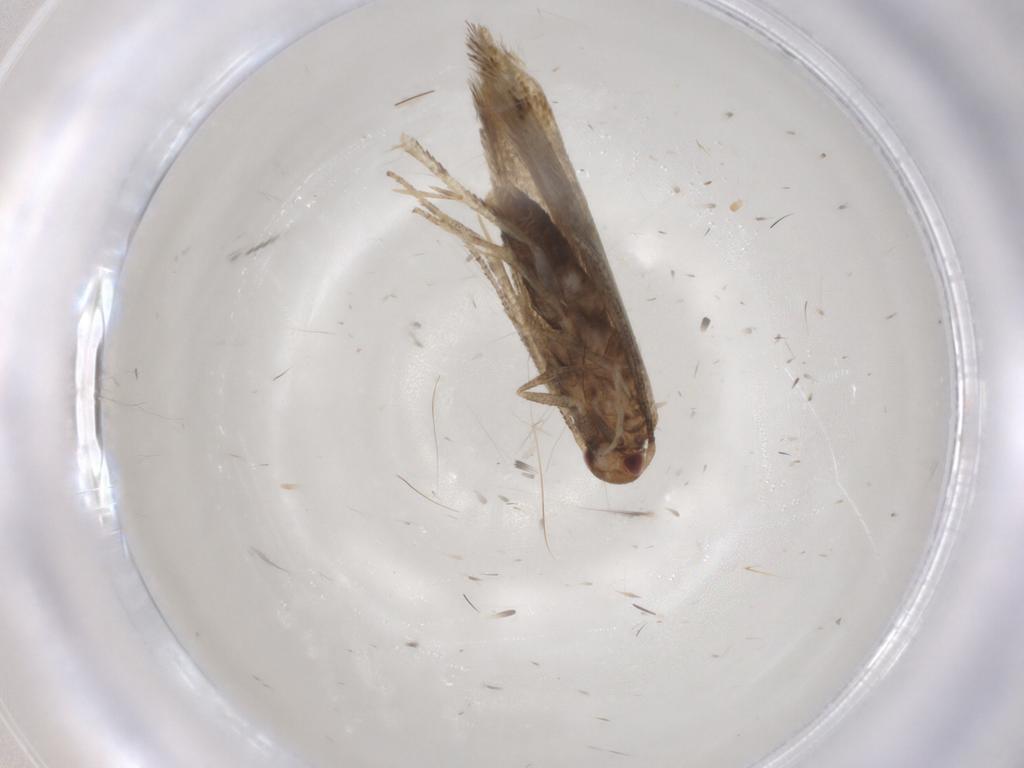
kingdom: Animalia
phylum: Arthropoda
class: Insecta
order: Lepidoptera
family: Momphidae
